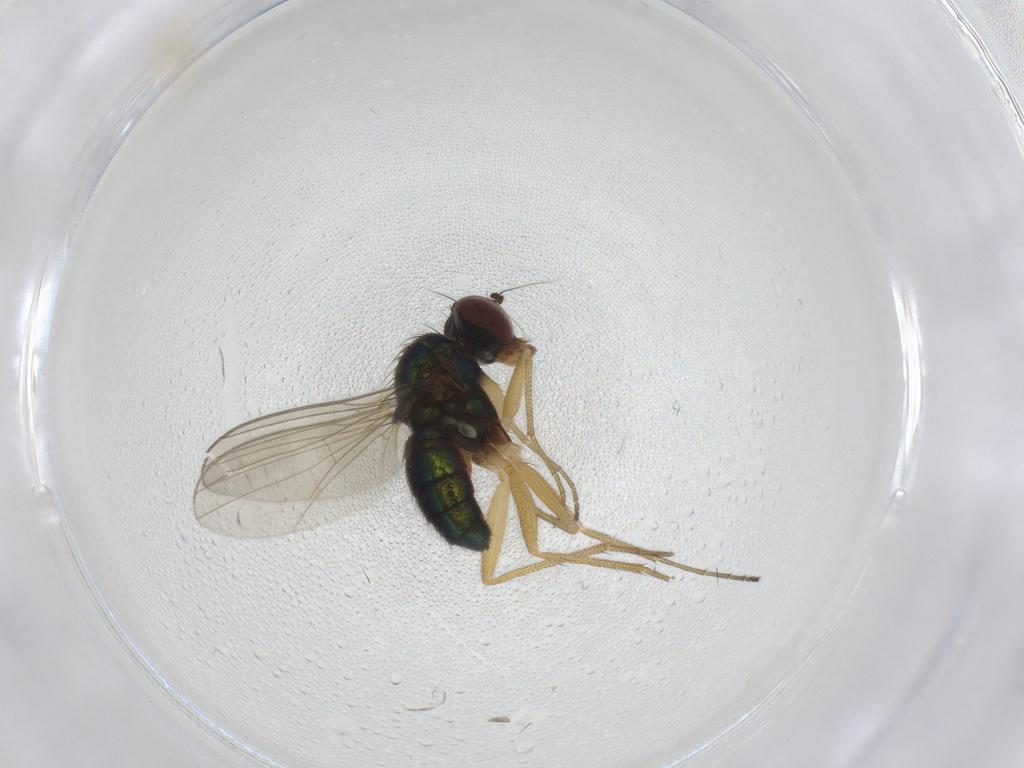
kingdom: Animalia
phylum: Arthropoda
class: Insecta
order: Diptera
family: Dolichopodidae
